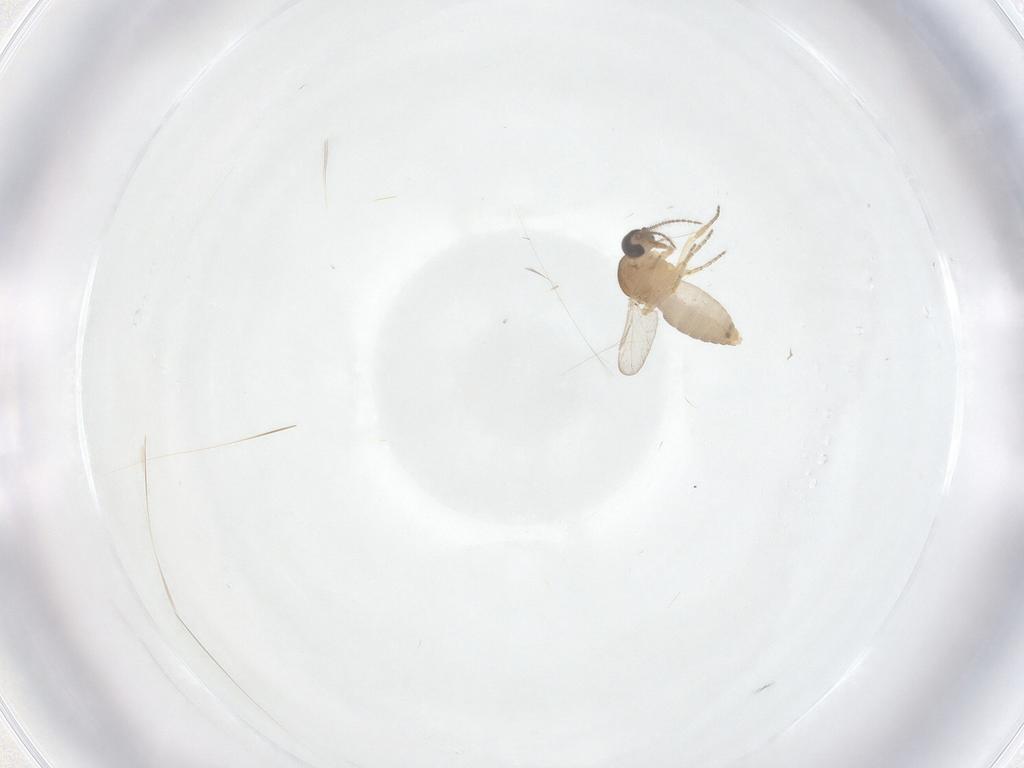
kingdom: Animalia
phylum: Arthropoda
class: Insecta
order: Diptera
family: Ceratopogonidae
